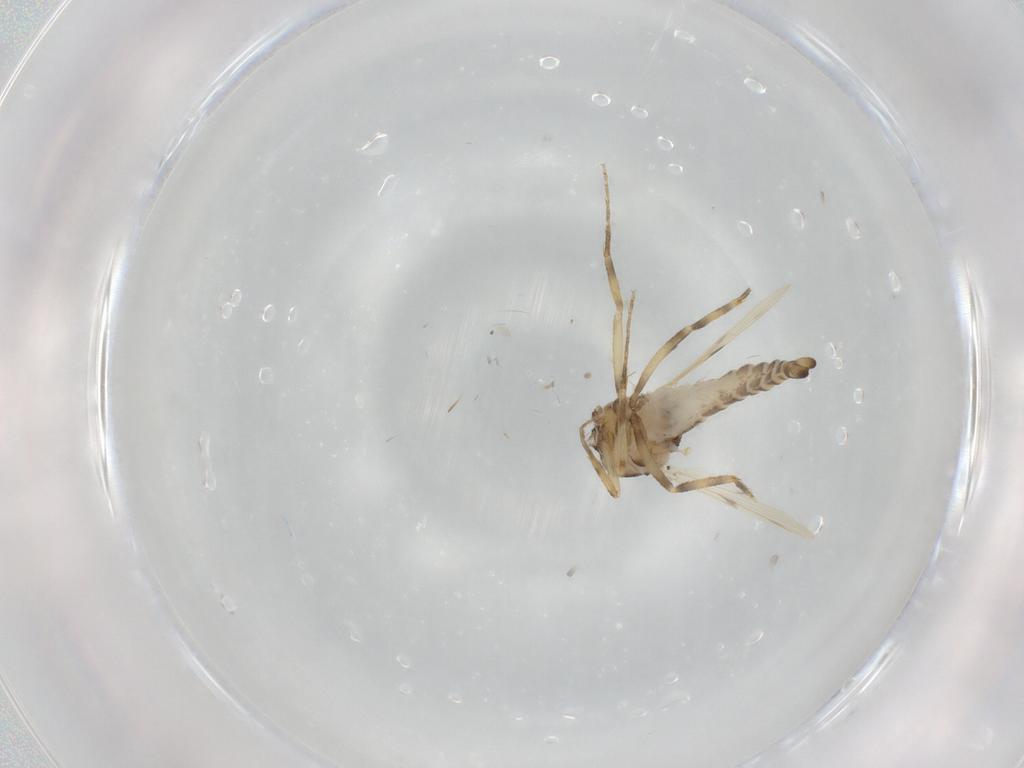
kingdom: Animalia
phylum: Arthropoda
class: Insecta
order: Diptera
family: Ceratopogonidae
